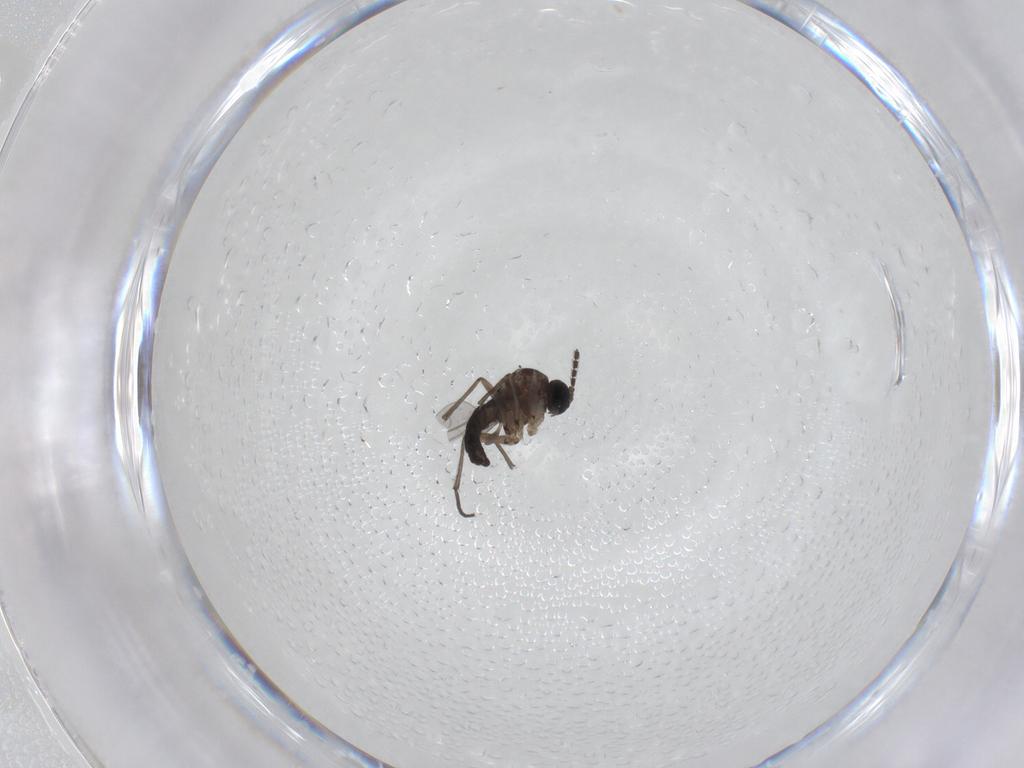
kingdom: Animalia
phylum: Arthropoda
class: Insecta
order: Diptera
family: Sciaridae
